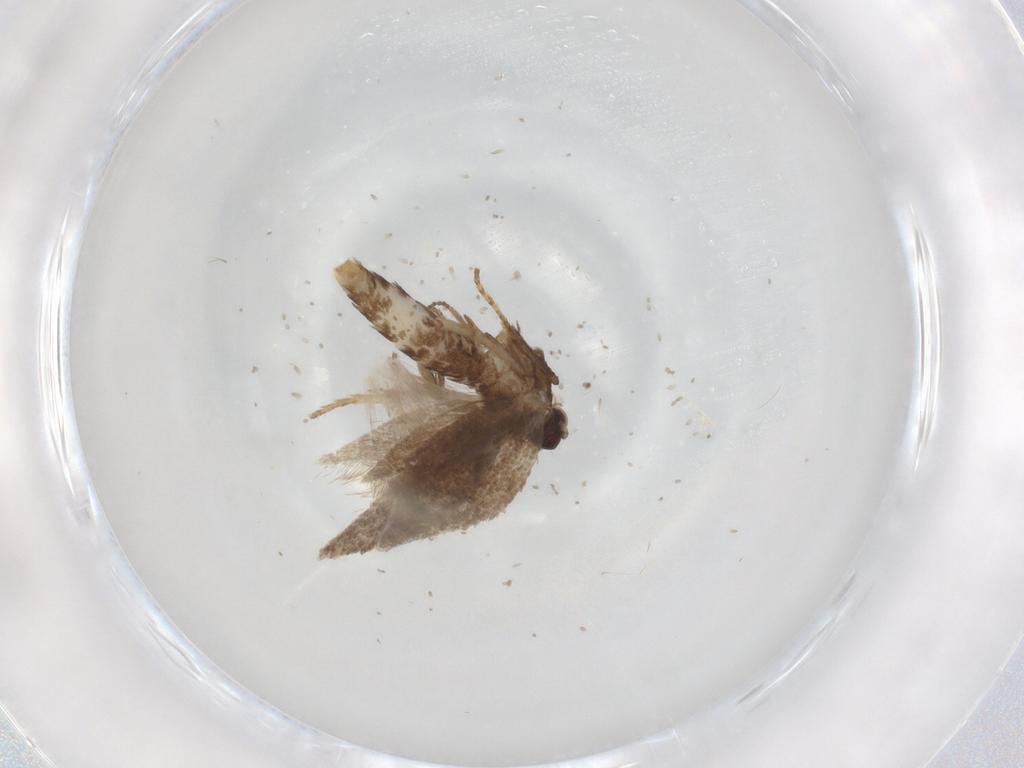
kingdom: Animalia
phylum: Arthropoda
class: Insecta
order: Lepidoptera
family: Nepticulidae
